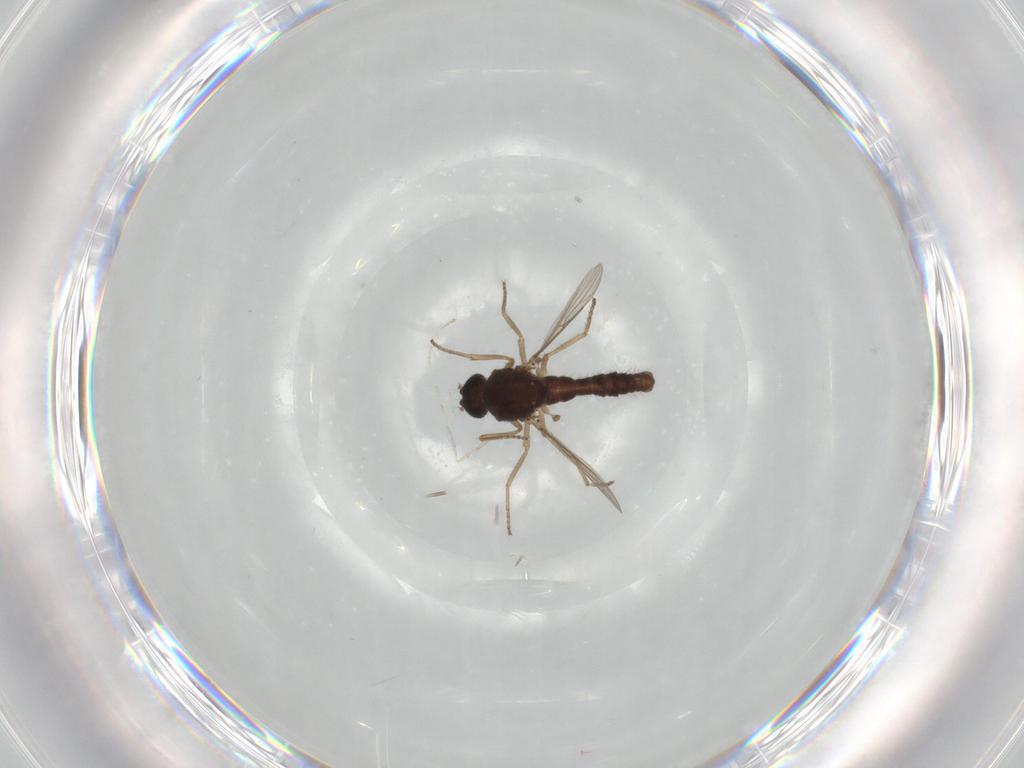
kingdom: Animalia
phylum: Arthropoda
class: Insecta
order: Diptera
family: Ceratopogonidae
